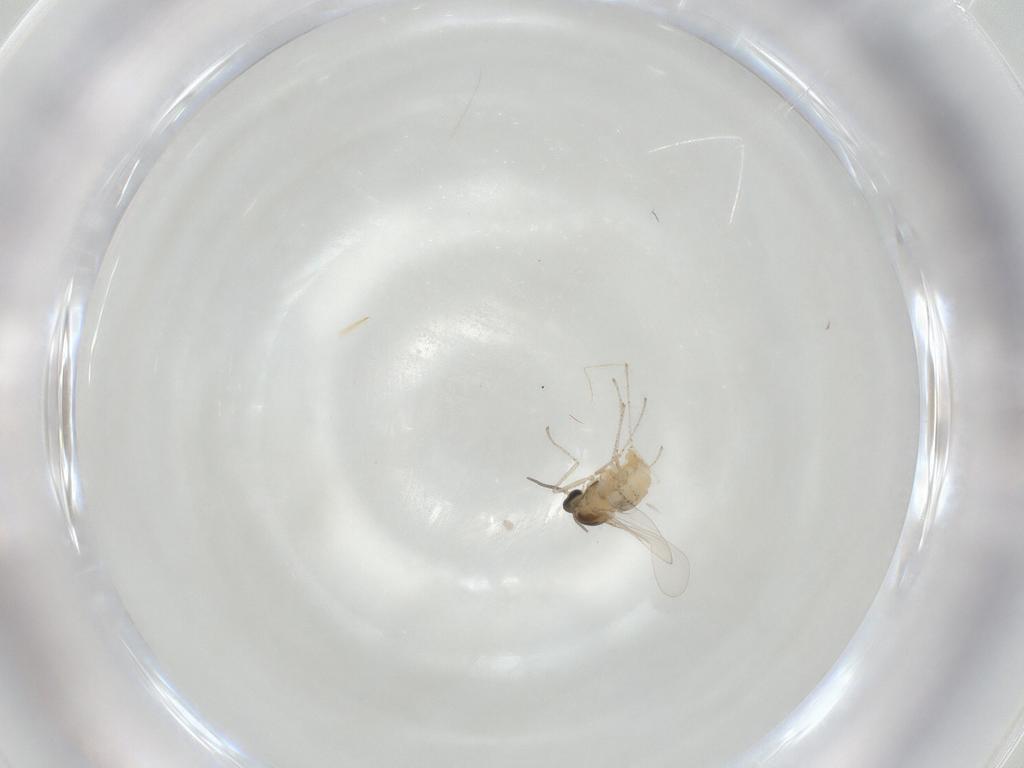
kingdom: Animalia
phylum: Arthropoda
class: Insecta
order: Diptera
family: Cecidomyiidae
